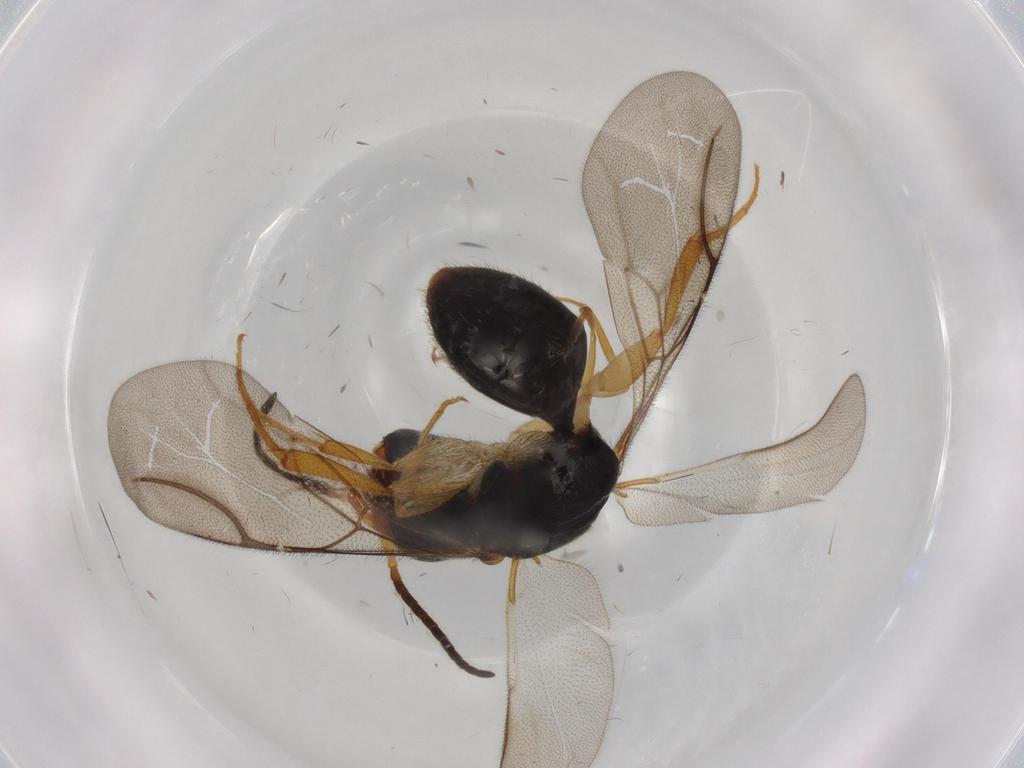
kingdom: Animalia
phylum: Arthropoda
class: Insecta
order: Hymenoptera
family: Bethylidae
